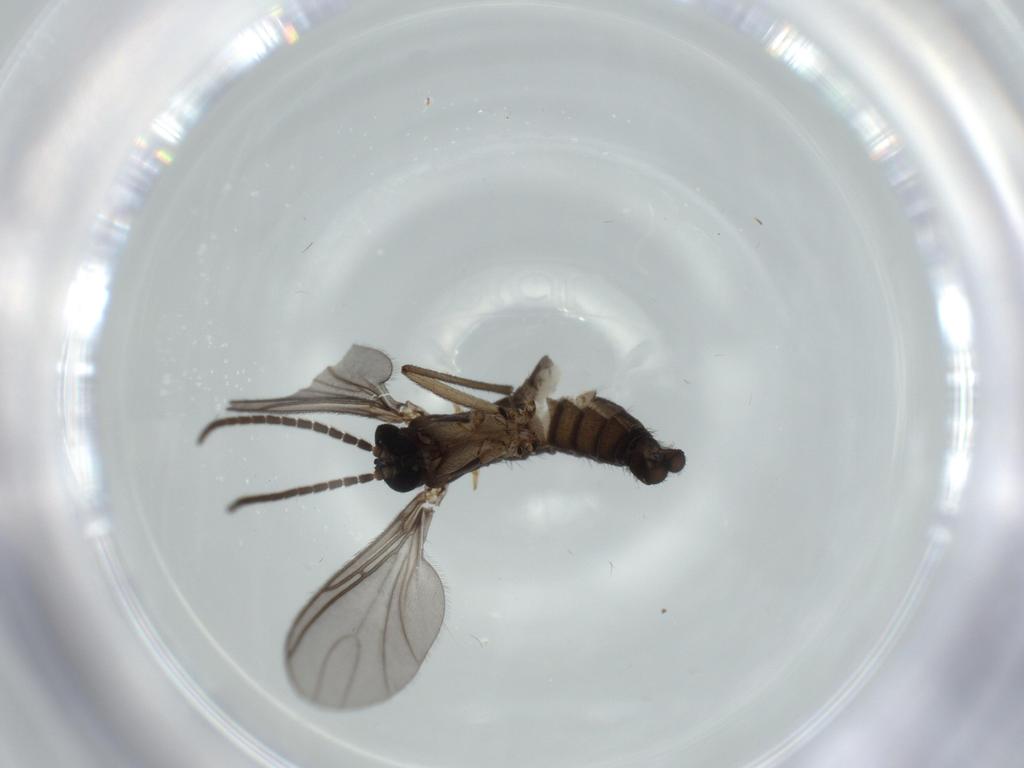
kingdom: Animalia
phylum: Arthropoda
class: Insecta
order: Diptera
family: Sciaridae
